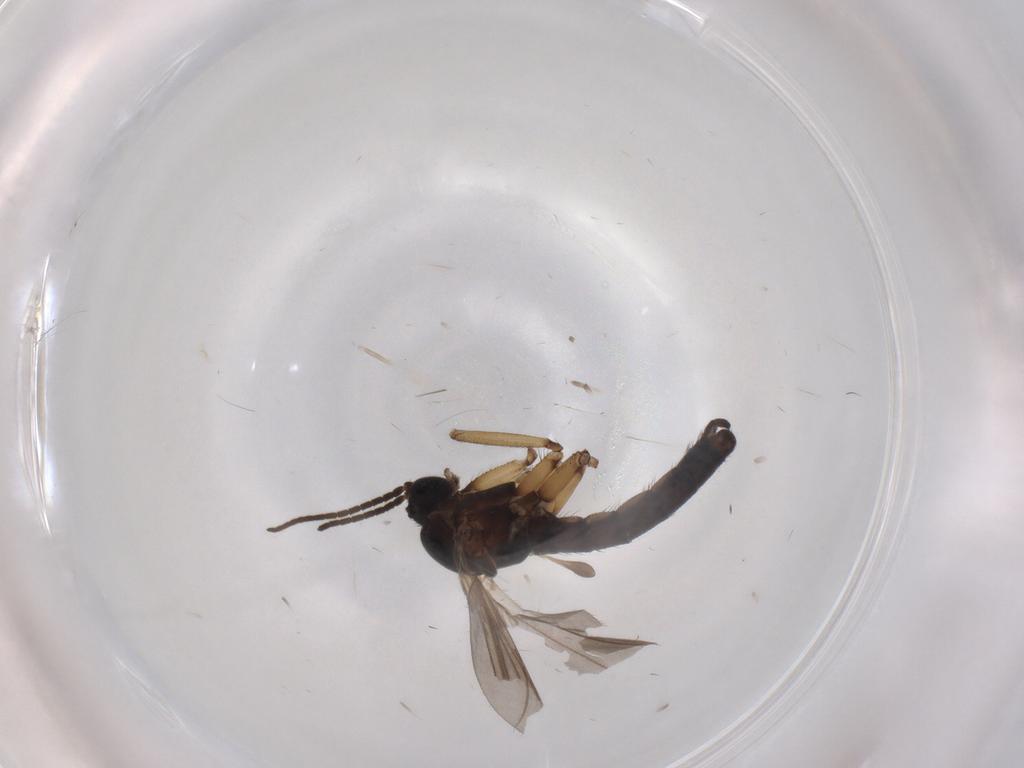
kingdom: Animalia
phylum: Arthropoda
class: Insecta
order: Diptera
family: Sciaridae
